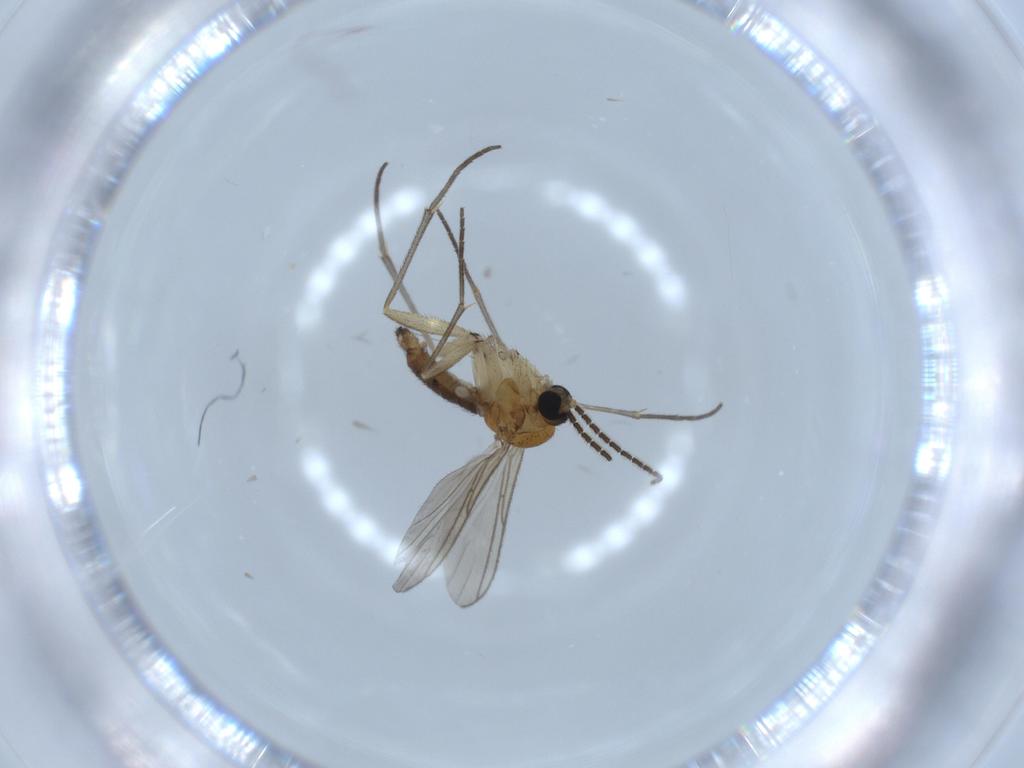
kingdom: Animalia
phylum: Arthropoda
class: Insecta
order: Diptera
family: Sciaridae
